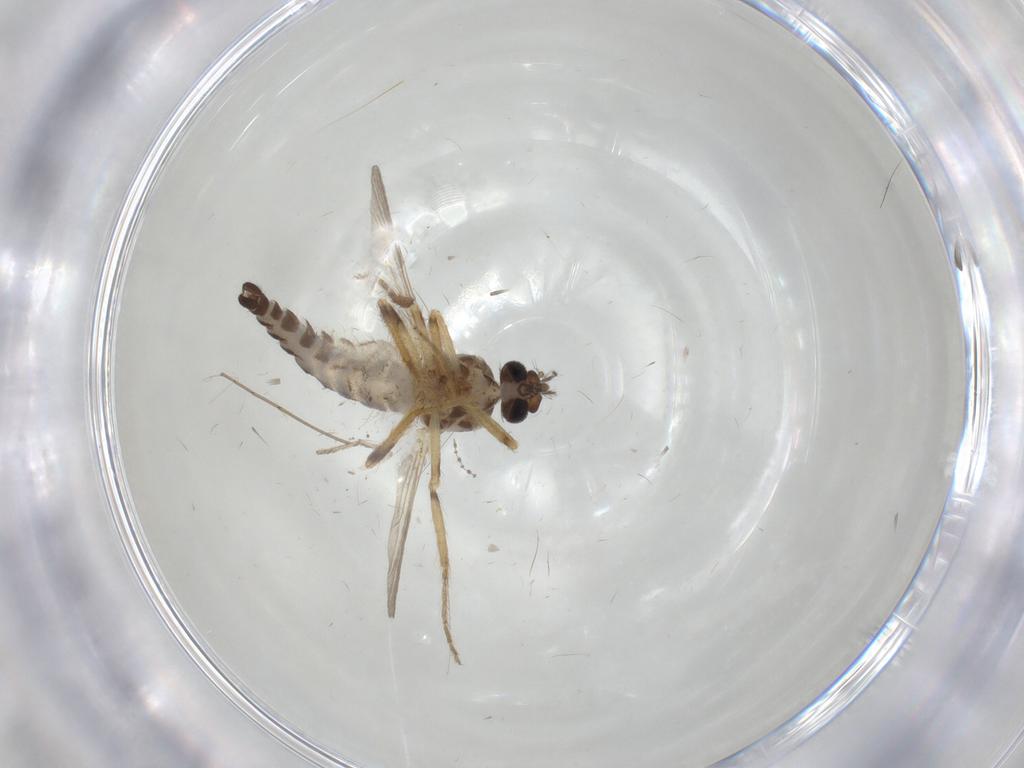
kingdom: Animalia
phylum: Arthropoda
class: Insecta
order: Diptera
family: Ceratopogonidae
